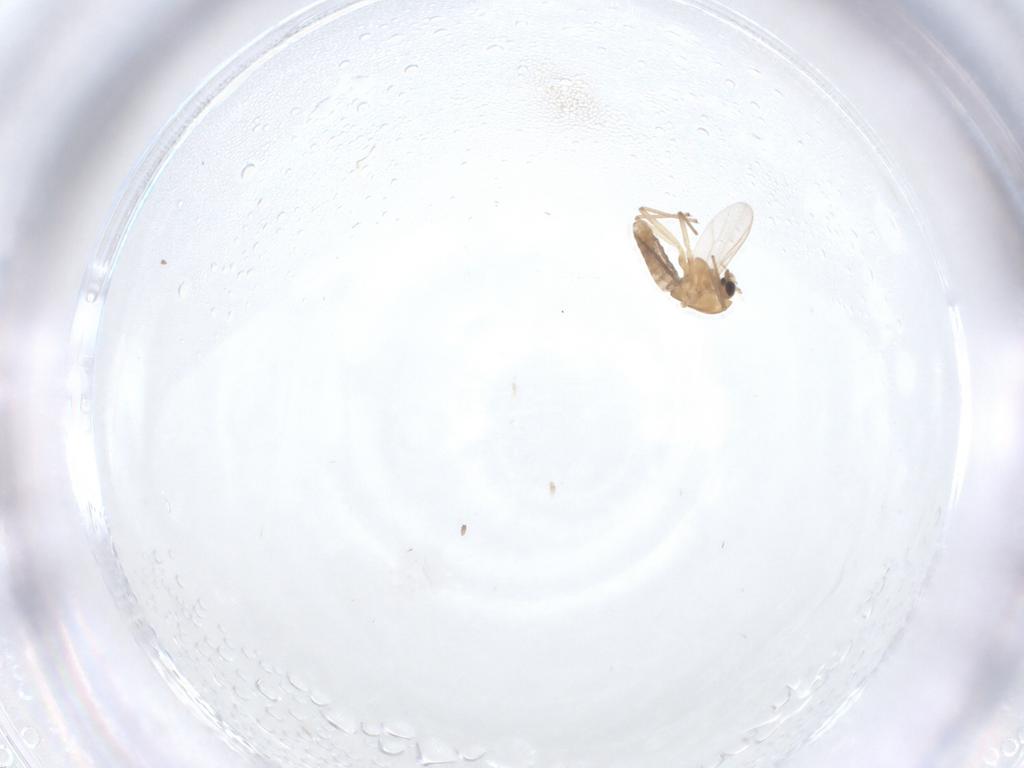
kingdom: Animalia
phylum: Arthropoda
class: Insecta
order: Diptera
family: Chironomidae
